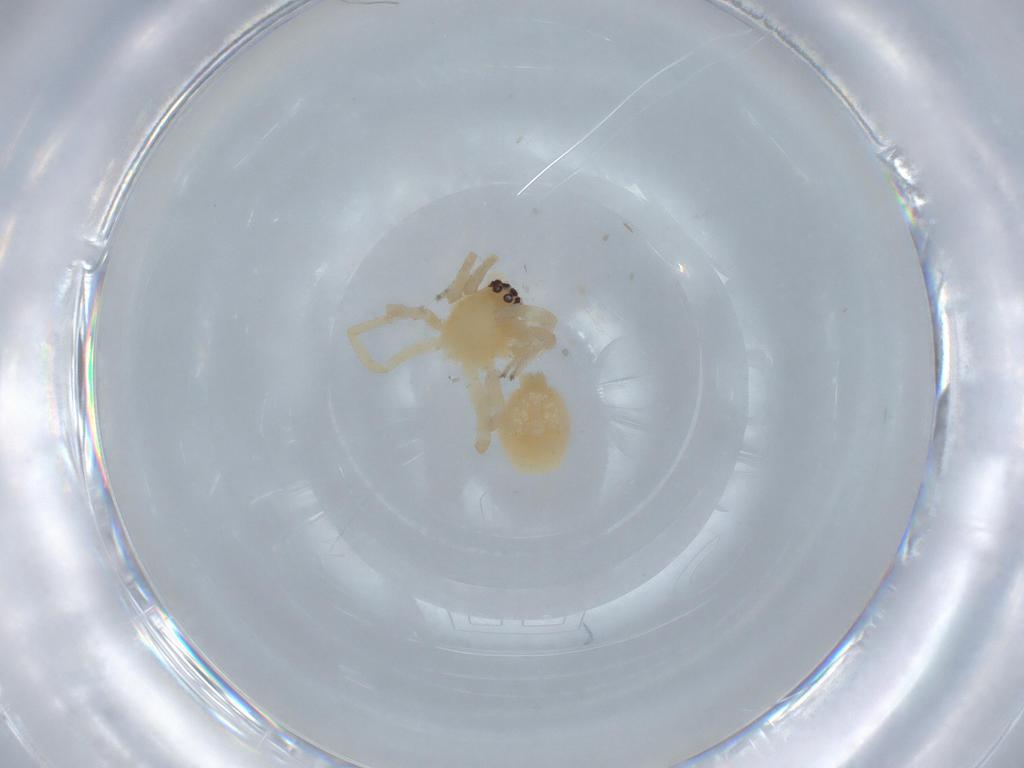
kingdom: Animalia
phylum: Arthropoda
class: Arachnida
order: Araneae
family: Cheiracanthiidae
